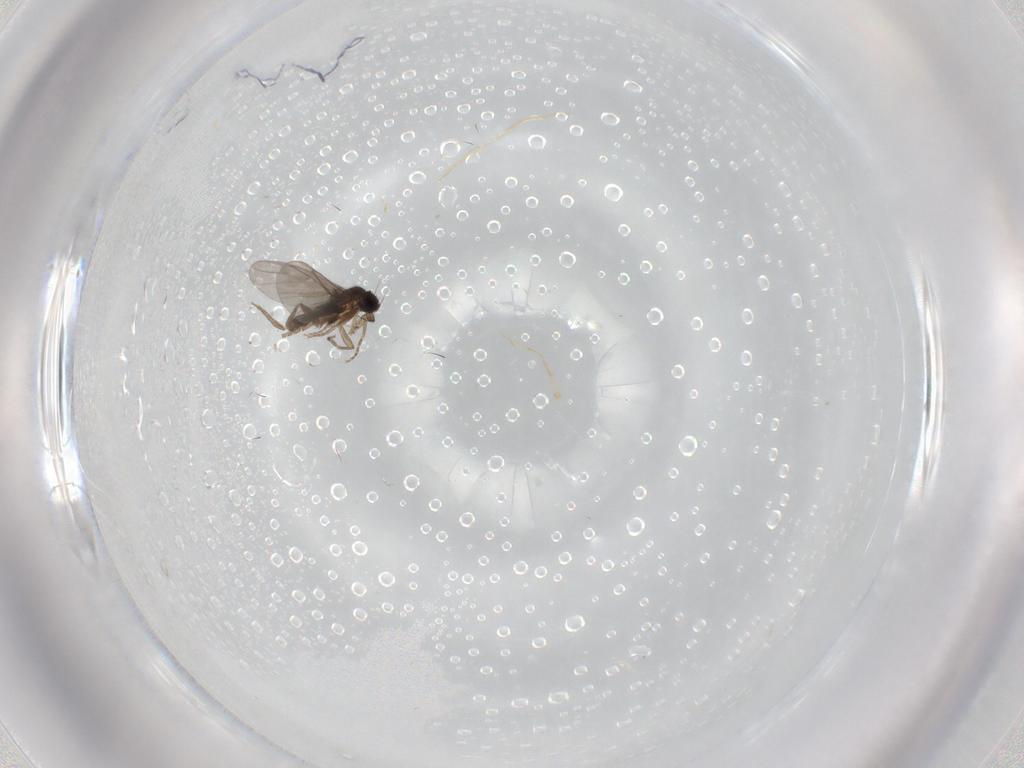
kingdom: Animalia
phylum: Arthropoda
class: Insecta
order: Diptera
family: Phoridae
